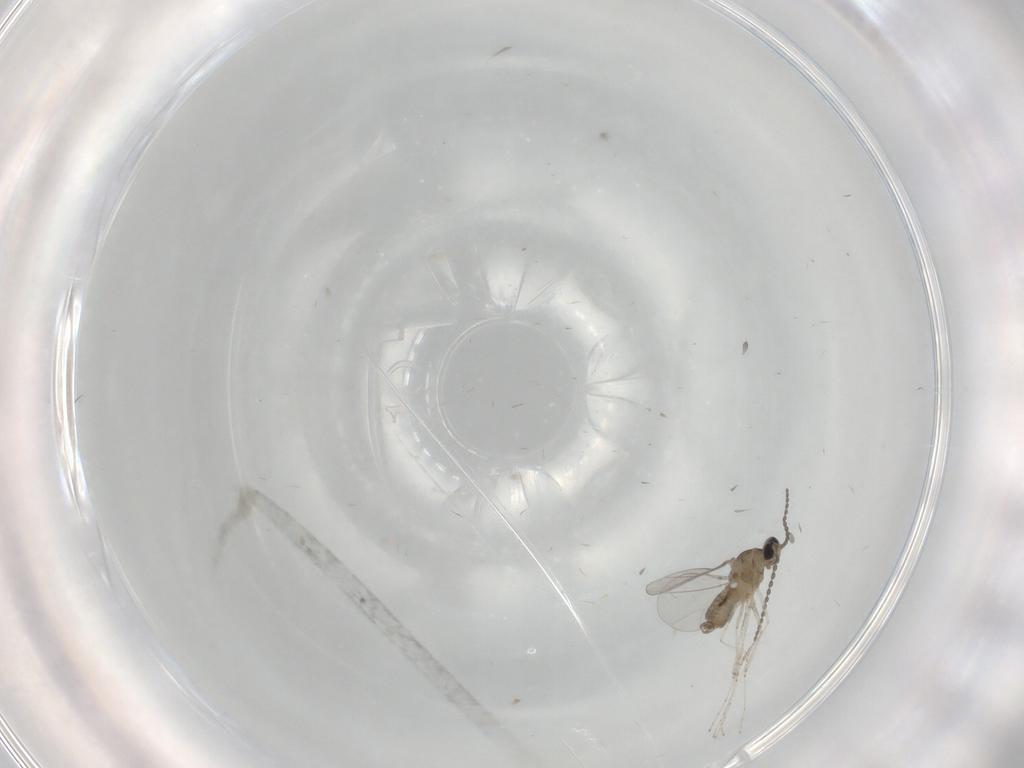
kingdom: Animalia
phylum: Arthropoda
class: Insecta
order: Diptera
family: Cecidomyiidae
